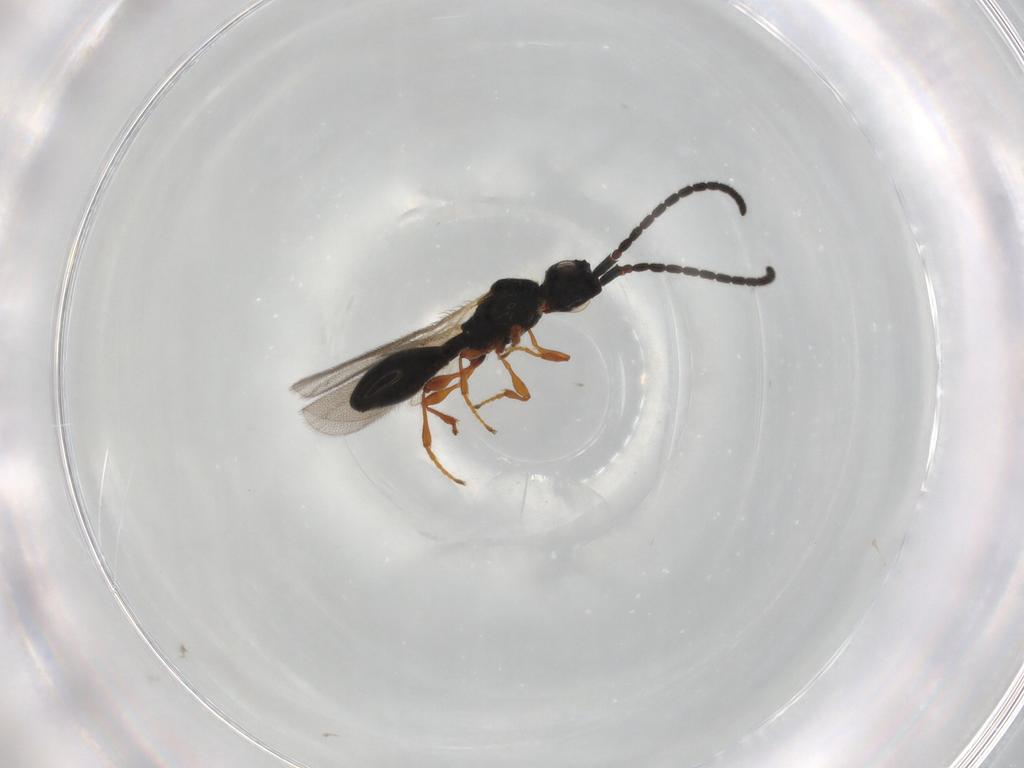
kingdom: Animalia
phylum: Arthropoda
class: Insecta
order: Hymenoptera
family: Diapriidae
